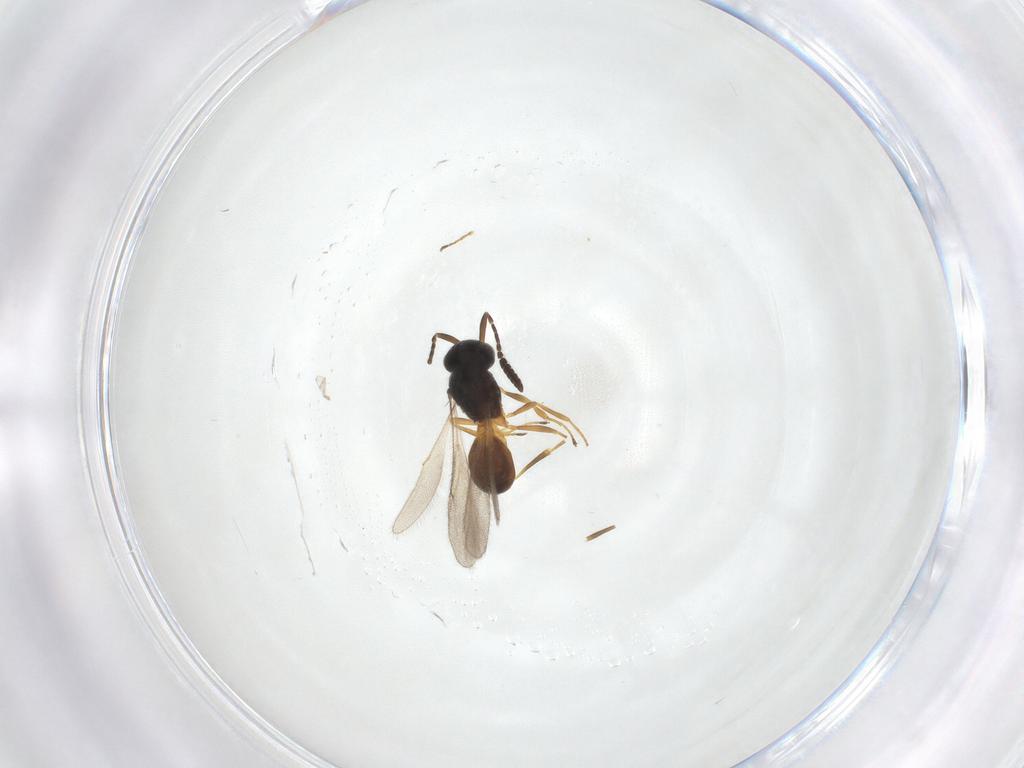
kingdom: Animalia
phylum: Arthropoda
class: Insecta
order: Hymenoptera
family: Scelionidae
